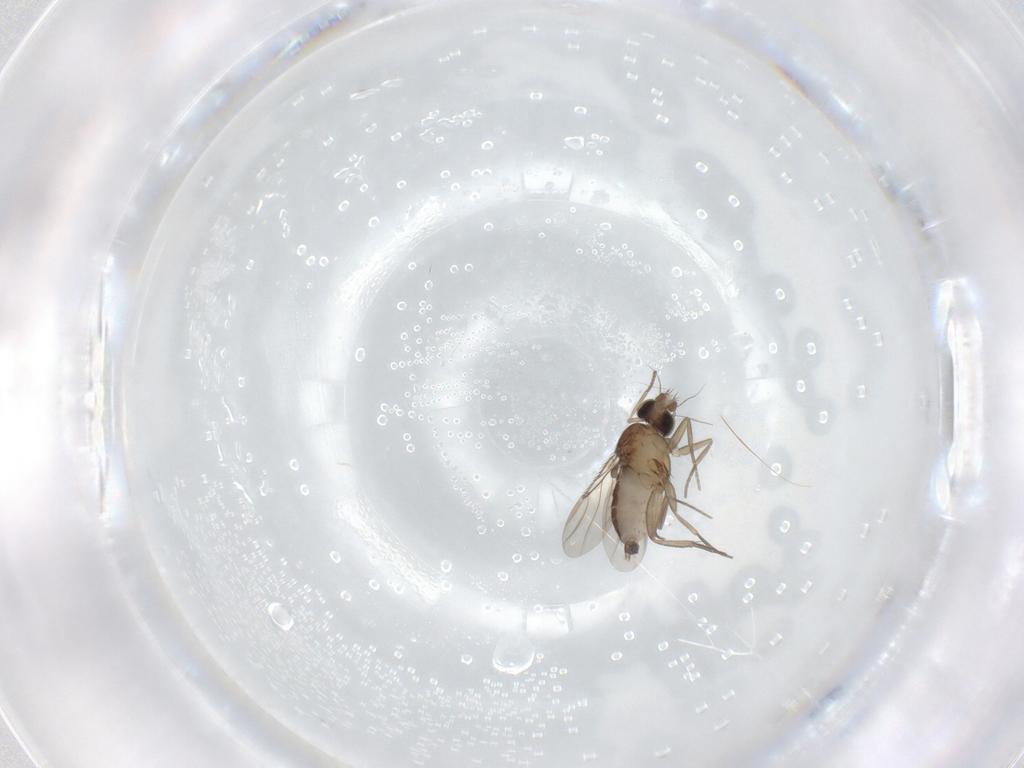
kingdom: Animalia
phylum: Arthropoda
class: Insecta
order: Diptera
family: Phoridae
